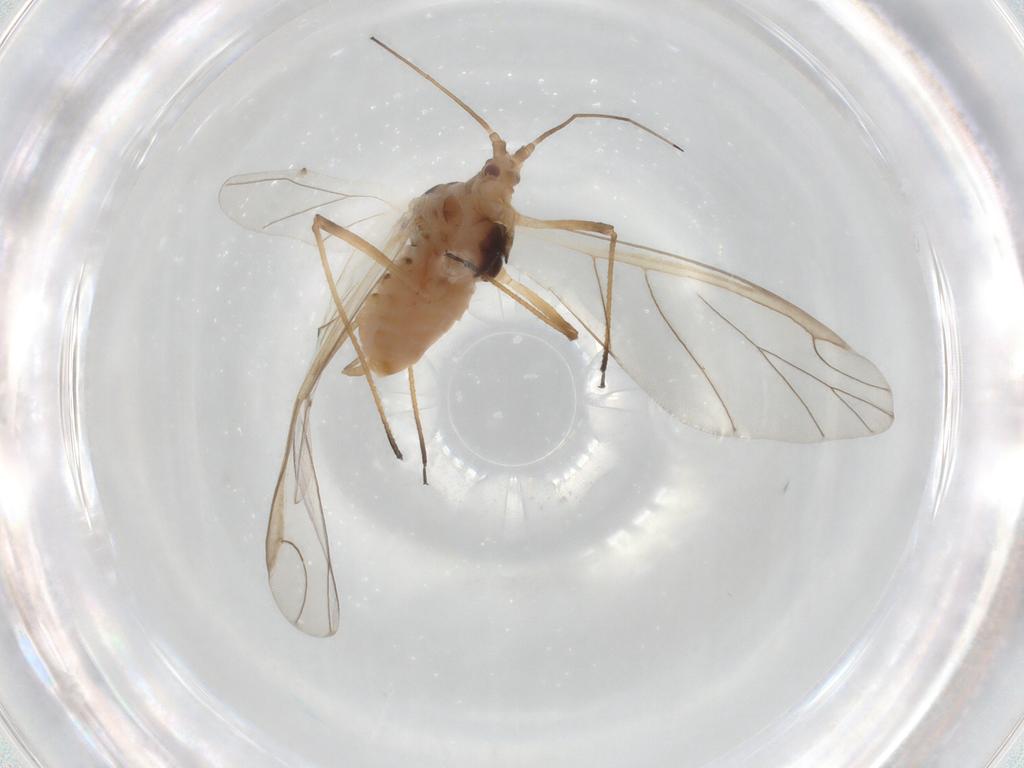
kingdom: Animalia
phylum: Arthropoda
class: Insecta
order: Hemiptera
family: Aphididae
